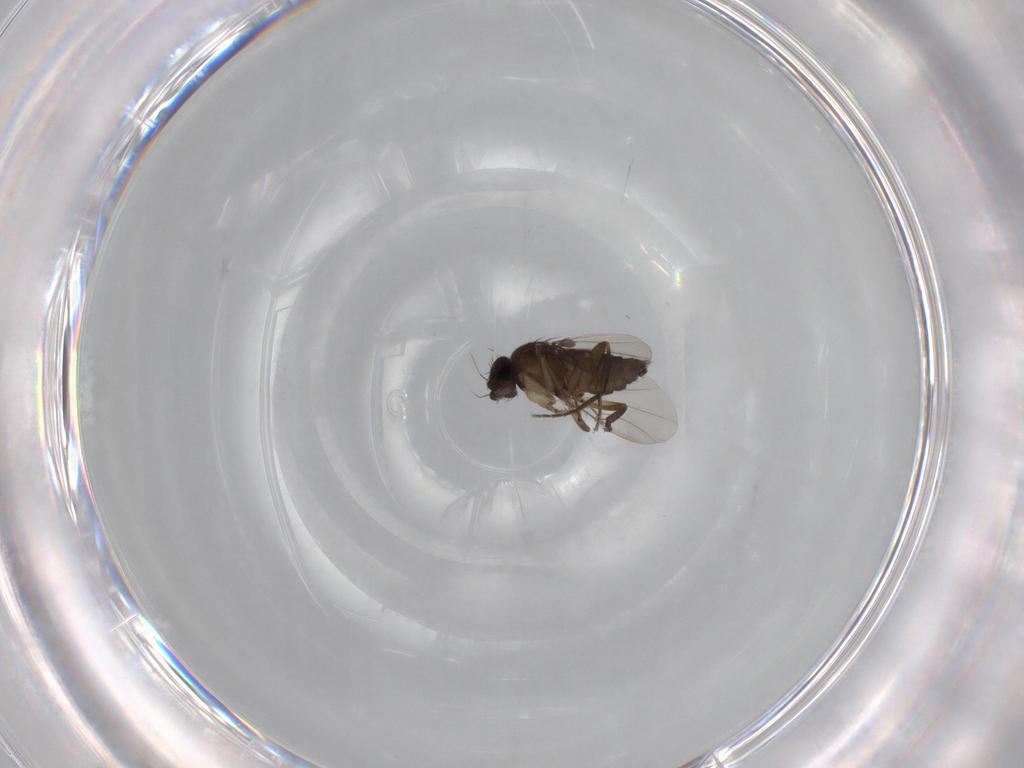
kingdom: Animalia
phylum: Arthropoda
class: Insecta
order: Diptera
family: Phoridae
